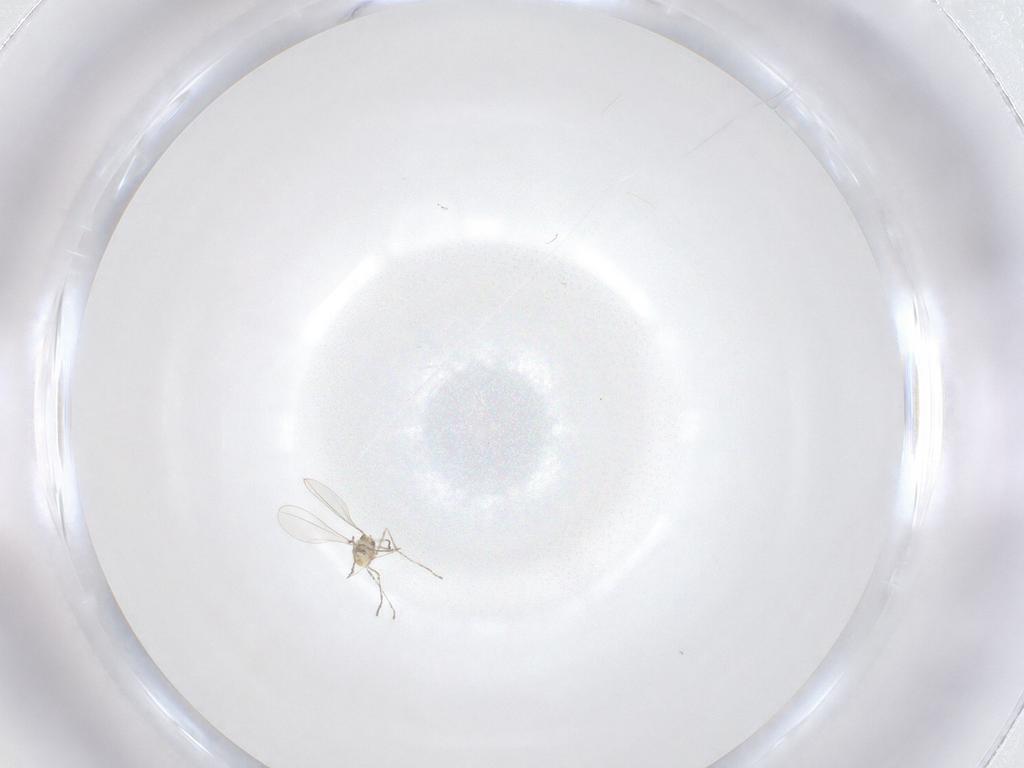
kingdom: Animalia
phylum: Arthropoda
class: Insecta
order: Diptera
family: Cecidomyiidae
